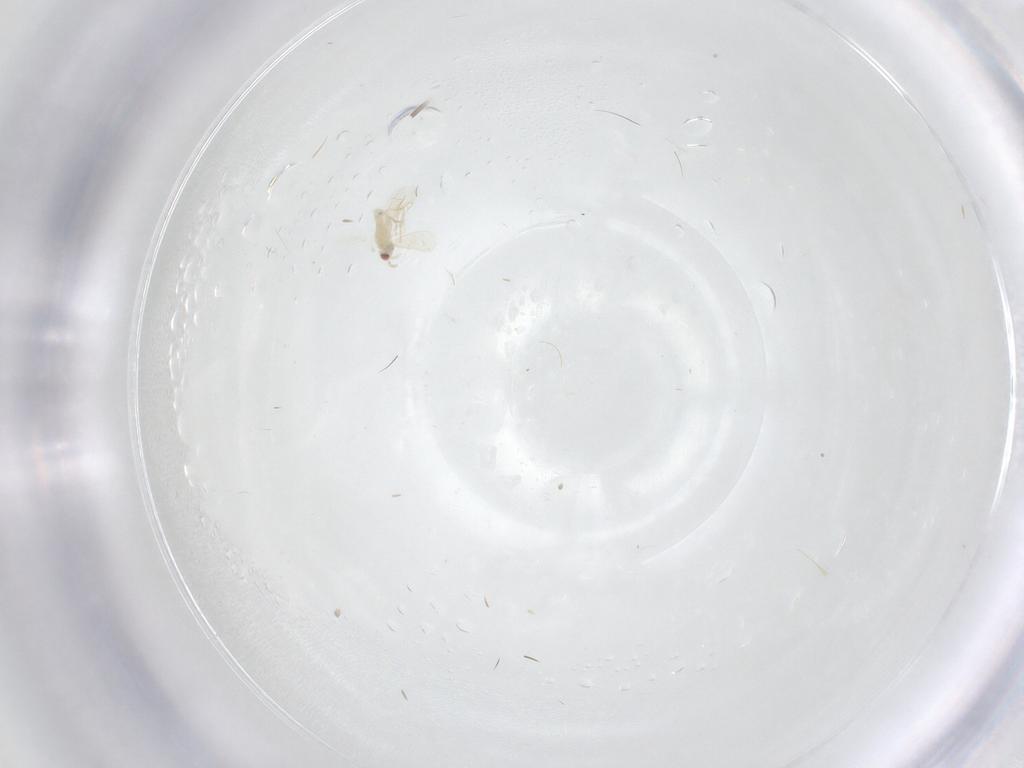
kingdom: Animalia
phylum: Arthropoda
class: Insecta
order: Hymenoptera
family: Aphelinidae
